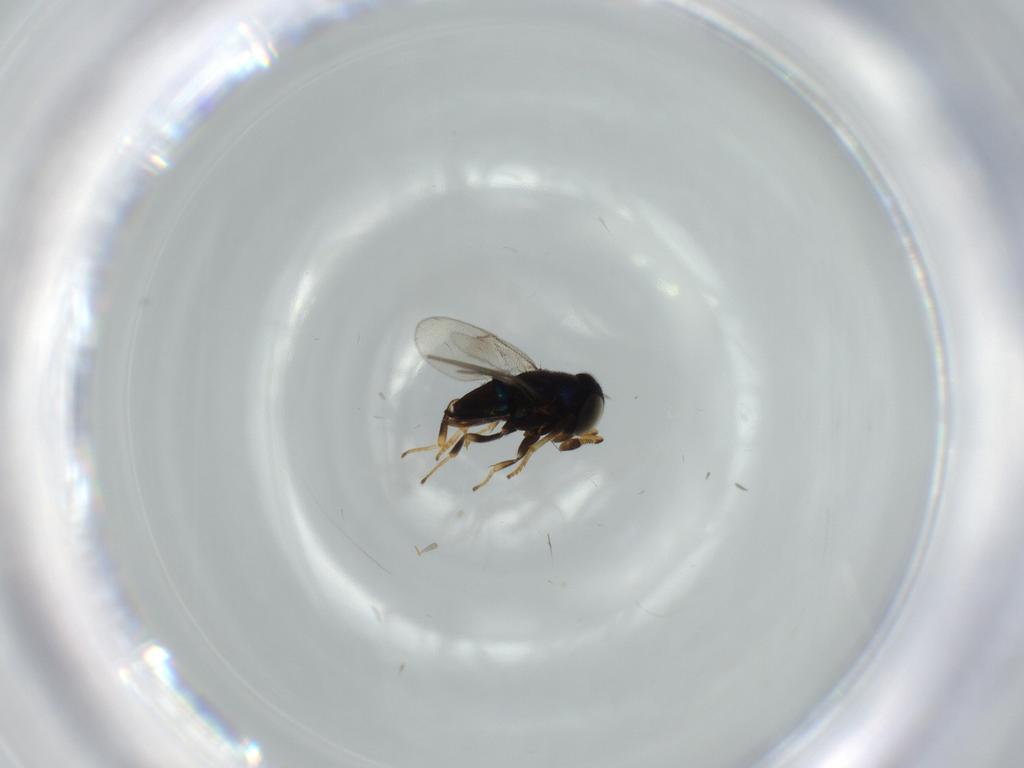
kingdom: Animalia
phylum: Arthropoda
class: Insecta
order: Hymenoptera
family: Encyrtidae
